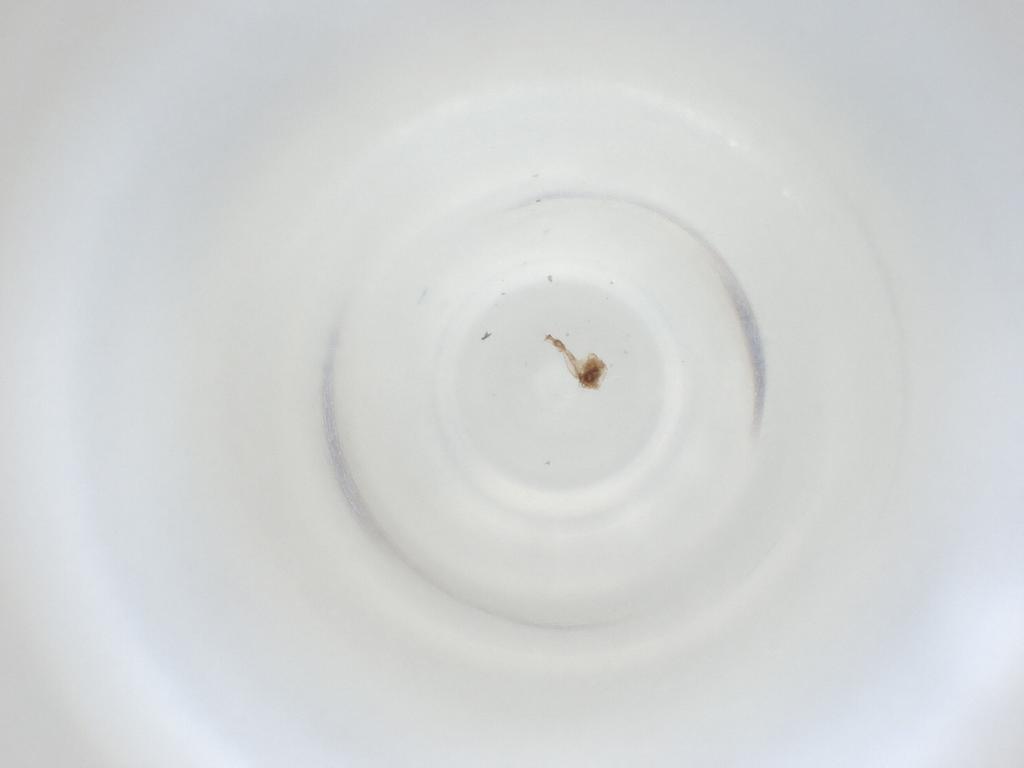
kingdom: Animalia
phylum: Arthropoda
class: Insecta
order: Diptera
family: Cecidomyiidae
